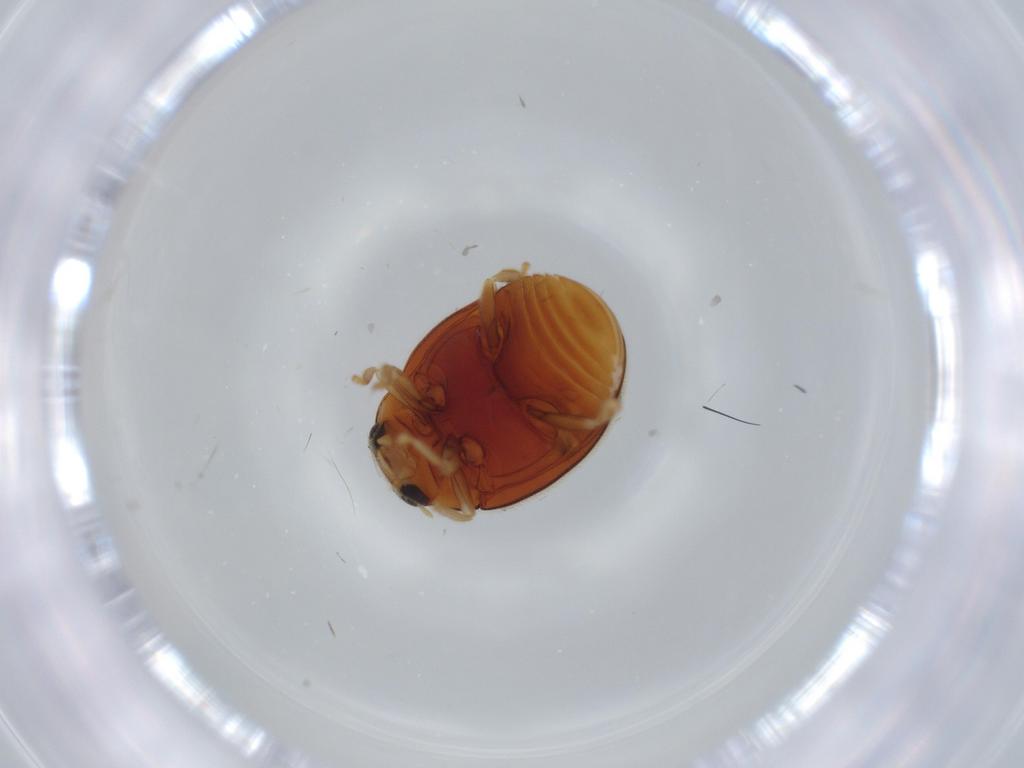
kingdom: Animalia
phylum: Arthropoda
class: Insecta
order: Coleoptera
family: Coccinellidae
